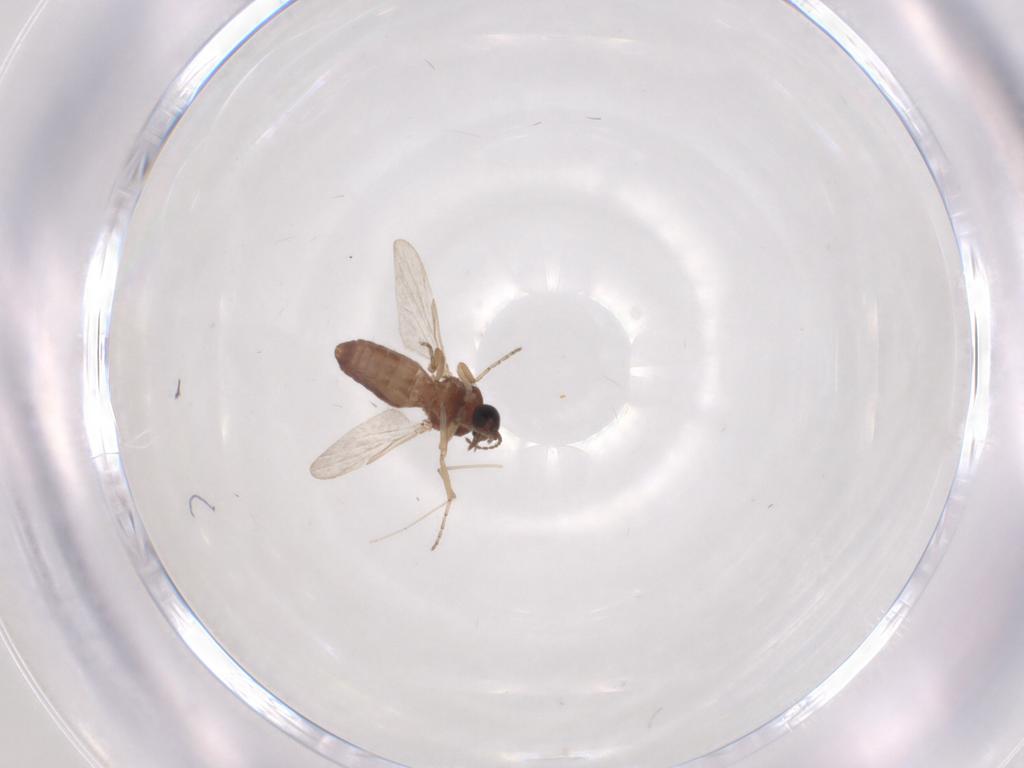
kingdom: Animalia
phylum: Arthropoda
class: Insecta
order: Diptera
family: Ceratopogonidae
